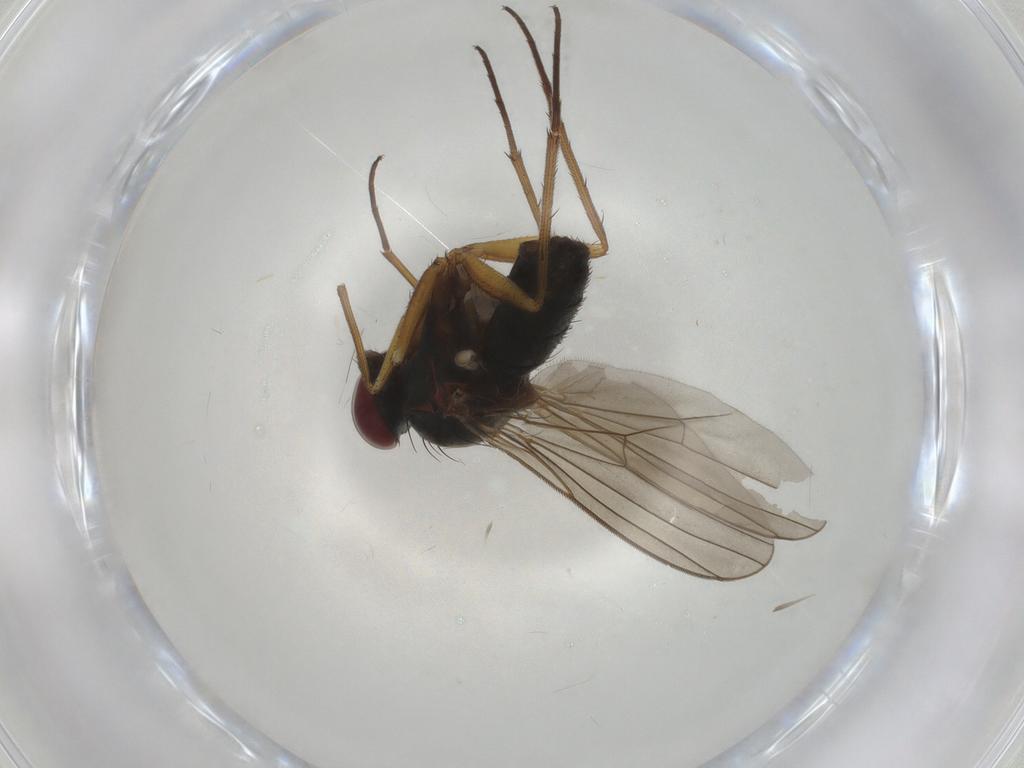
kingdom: Animalia
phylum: Arthropoda
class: Insecta
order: Diptera
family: Dolichopodidae
